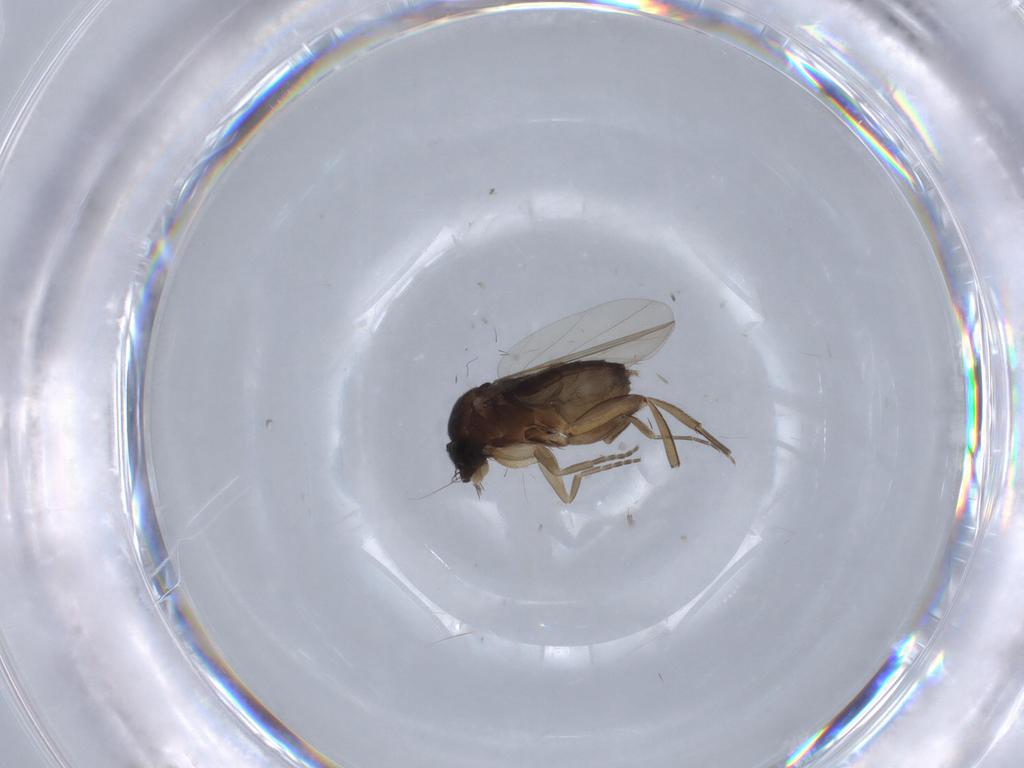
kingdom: Animalia
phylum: Arthropoda
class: Insecta
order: Diptera
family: Phoridae
